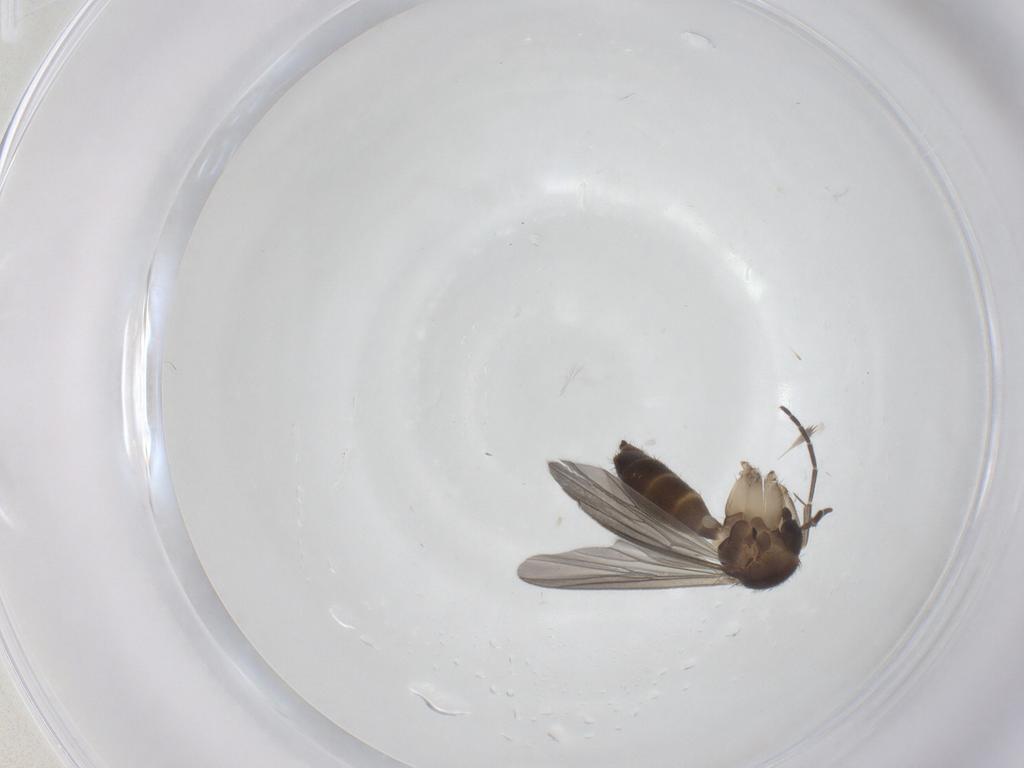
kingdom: Animalia
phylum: Arthropoda
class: Insecta
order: Diptera
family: Mycetophilidae
